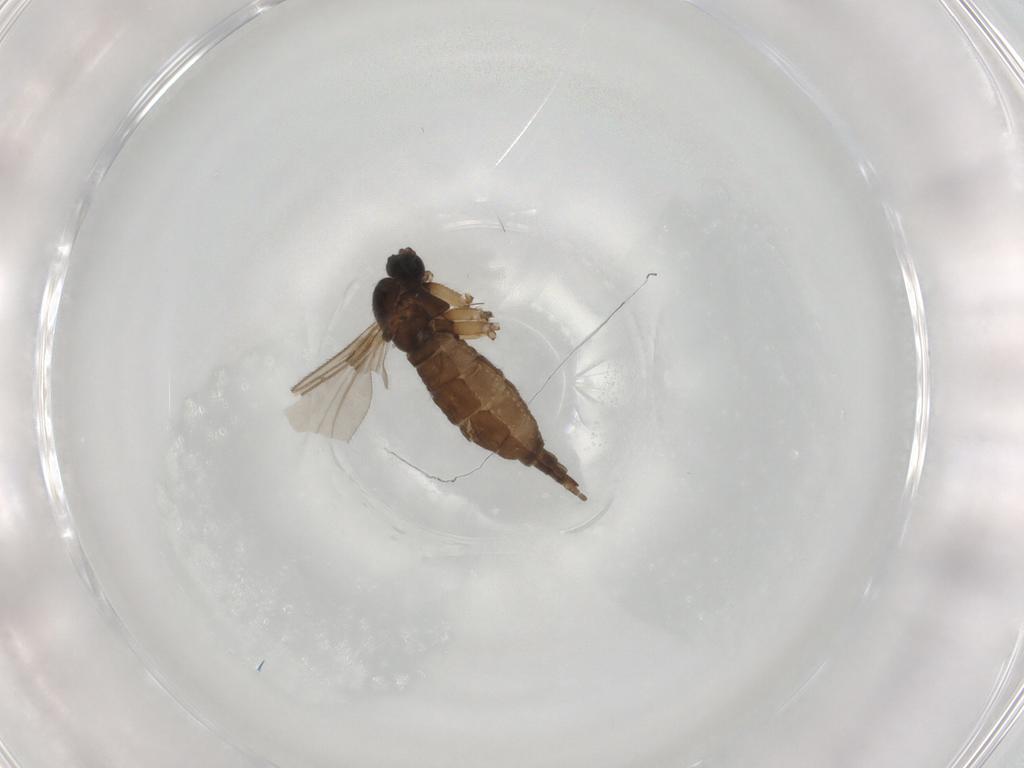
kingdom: Animalia
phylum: Arthropoda
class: Insecta
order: Diptera
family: Sciaridae
